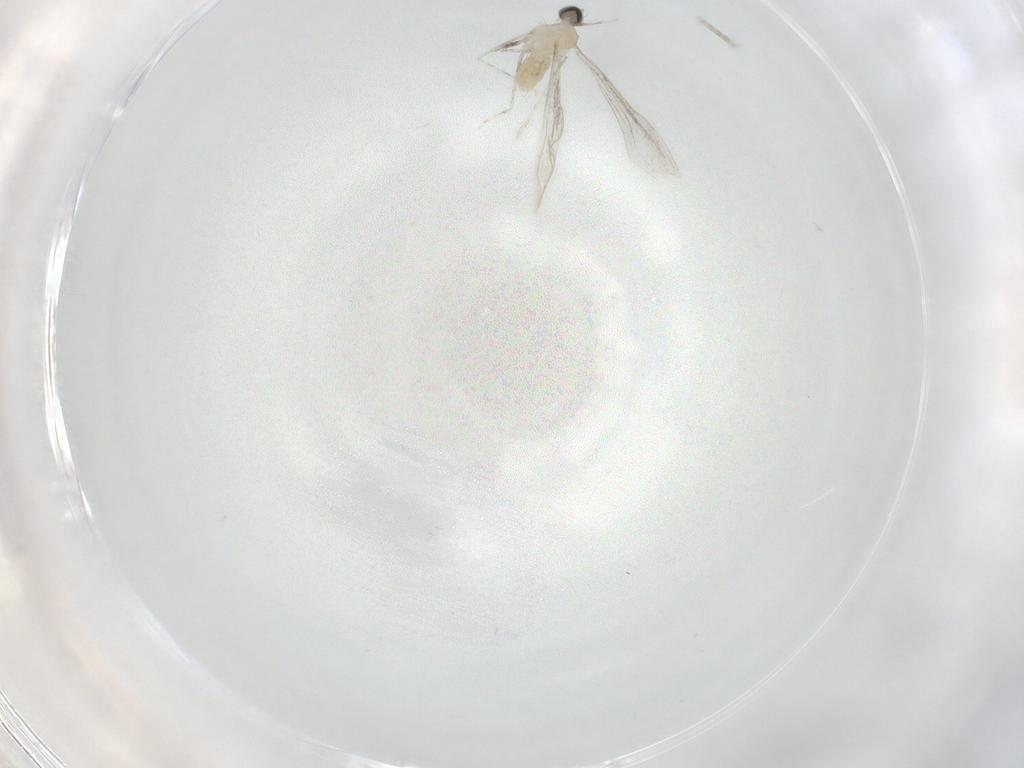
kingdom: Animalia
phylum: Arthropoda
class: Insecta
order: Diptera
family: Cecidomyiidae
